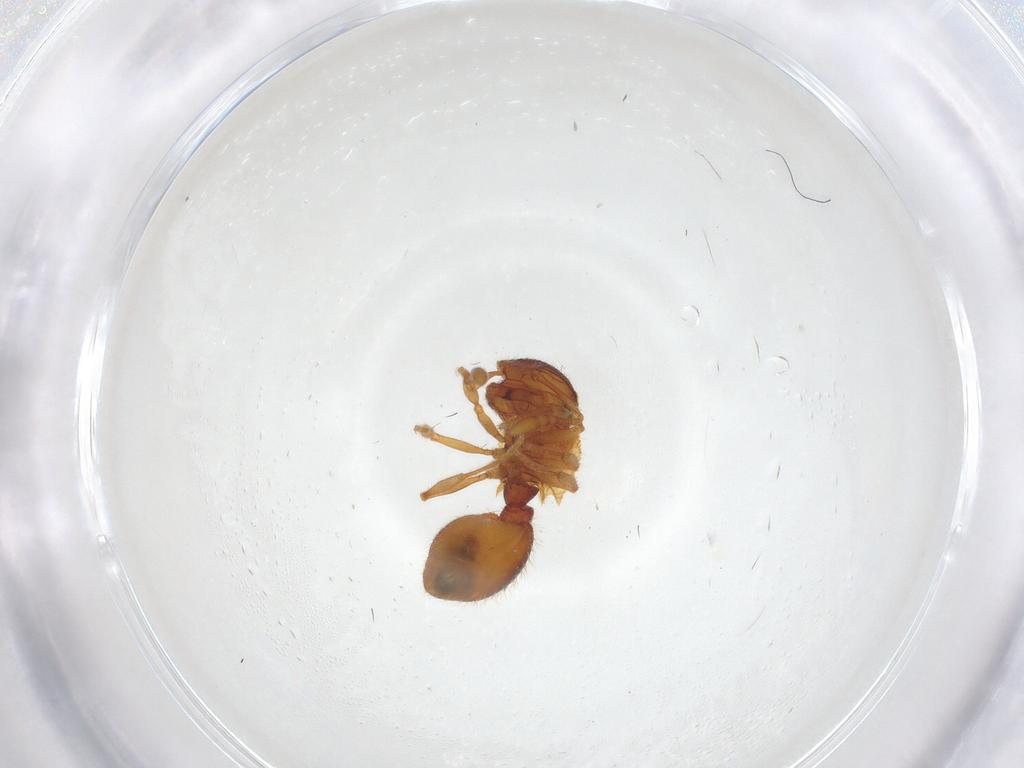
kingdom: Animalia
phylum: Arthropoda
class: Insecta
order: Hymenoptera
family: Formicidae
